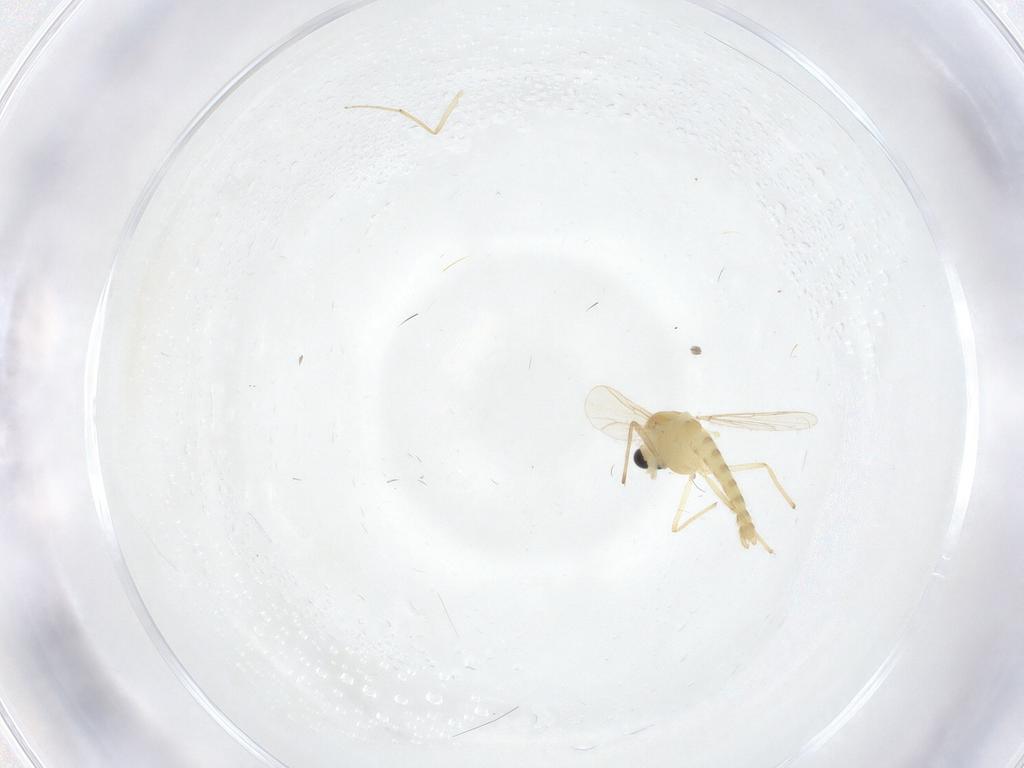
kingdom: Animalia
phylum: Arthropoda
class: Insecta
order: Diptera
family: Chironomidae
